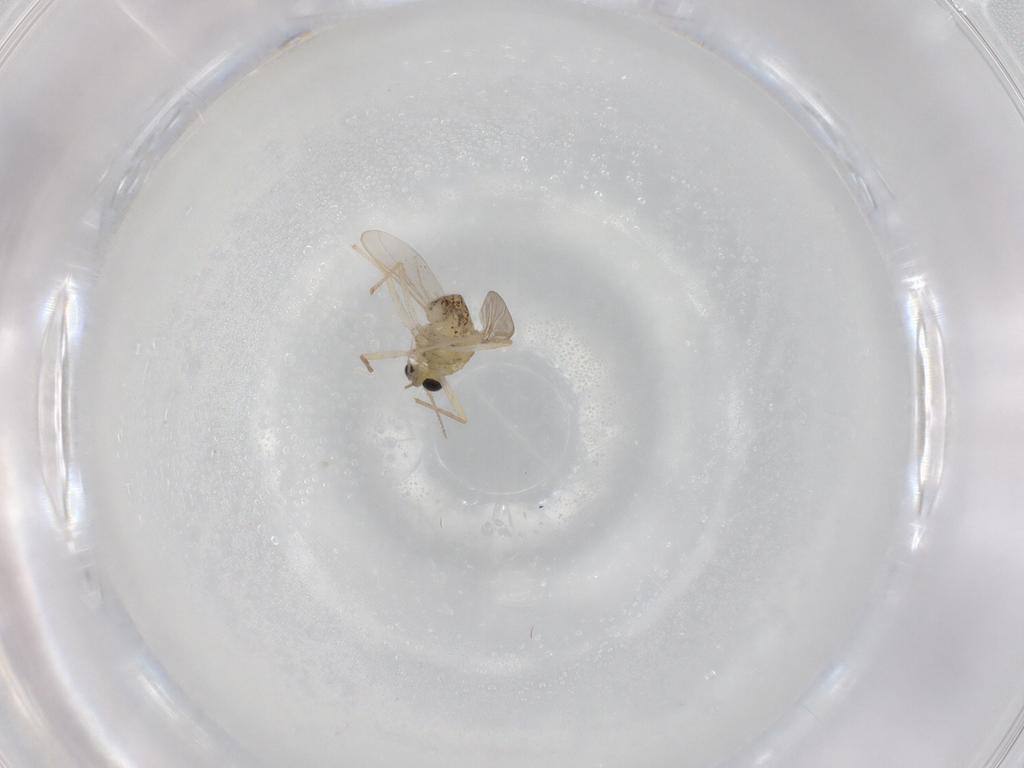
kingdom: Animalia
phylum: Arthropoda
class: Insecta
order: Diptera
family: Chironomidae
